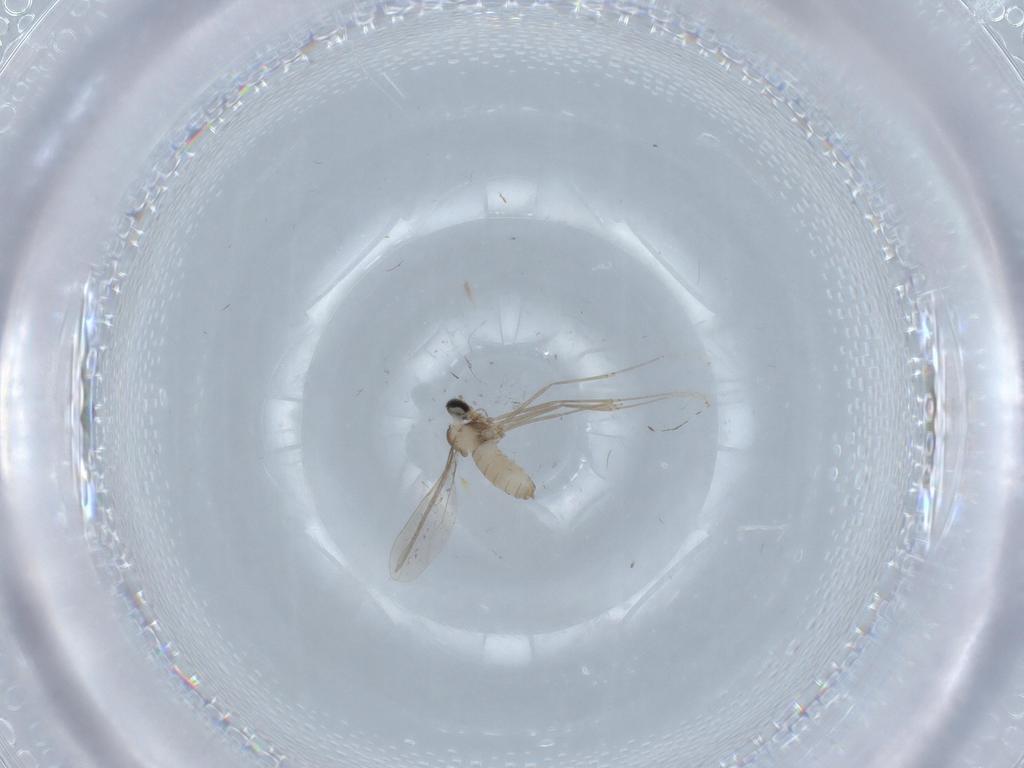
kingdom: Animalia
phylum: Arthropoda
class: Insecta
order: Diptera
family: Cecidomyiidae
